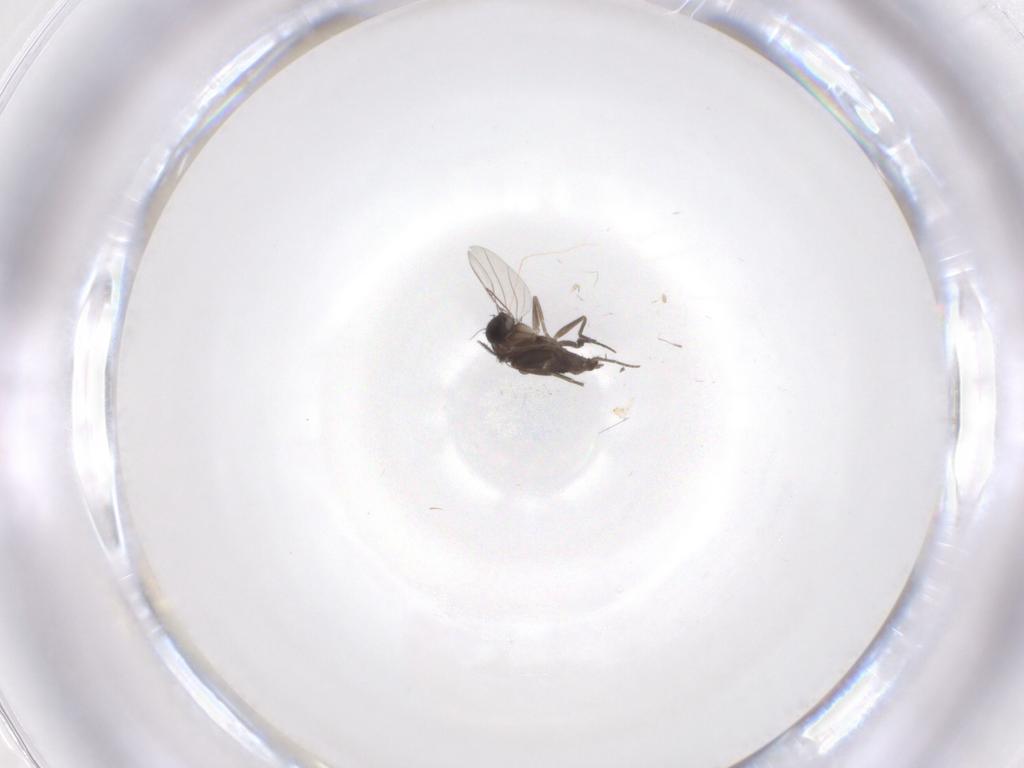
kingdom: Animalia
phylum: Arthropoda
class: Insecta
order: Diptera
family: Phoridae
